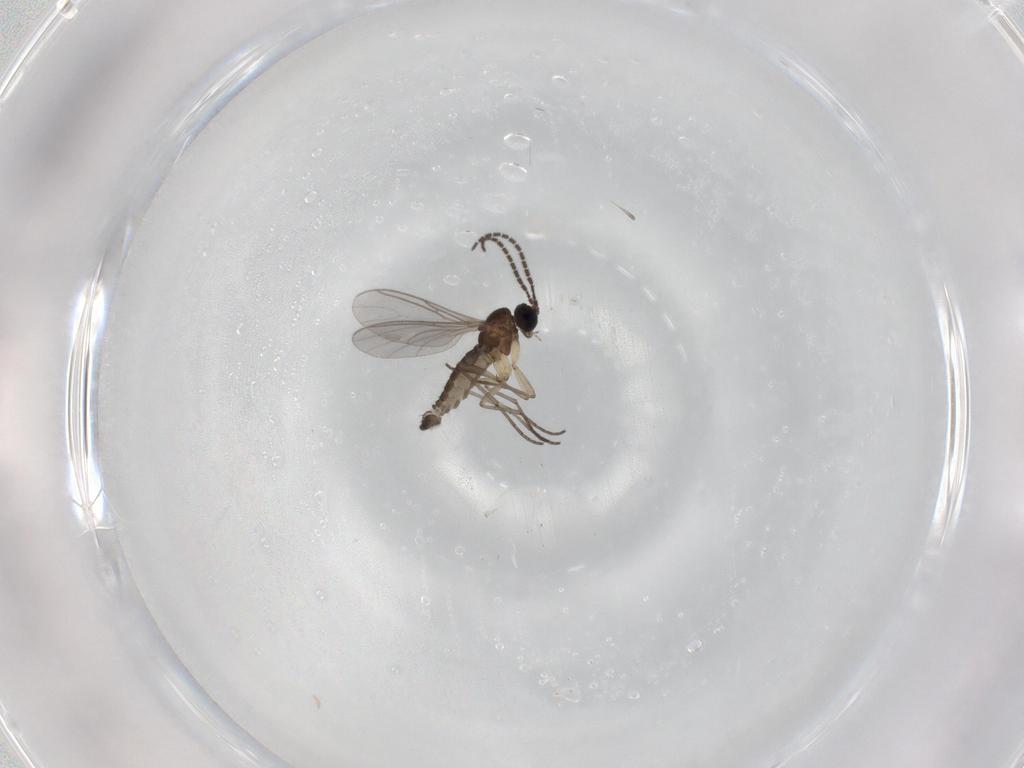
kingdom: Animalia
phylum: Arthropoda
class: Insecta
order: Diptera
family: Sciaridae
